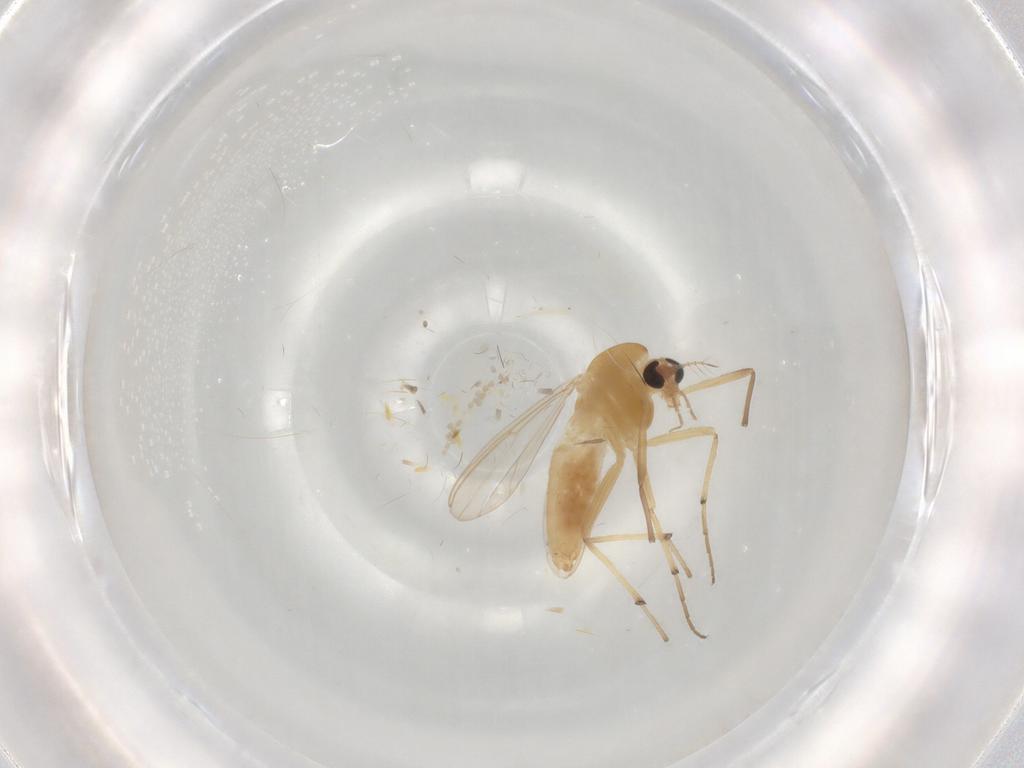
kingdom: Animalia
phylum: Arthropoda
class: Insecta
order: Diptera
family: Chironomidae
